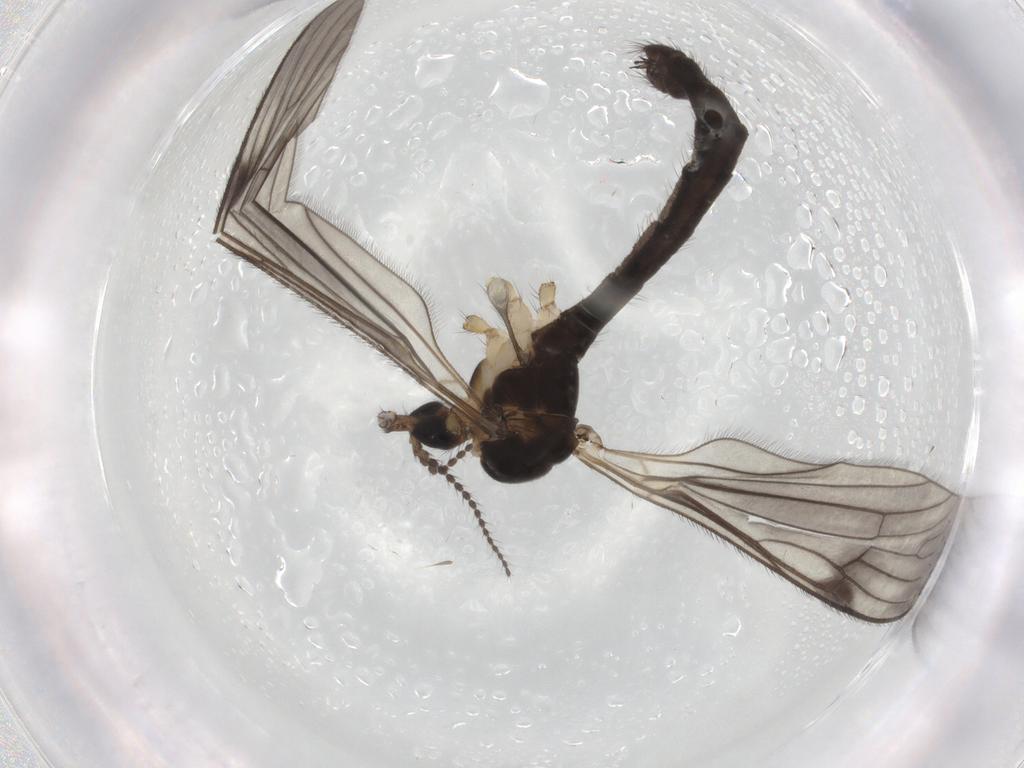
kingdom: Animalia
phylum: Arthropoda
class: Insecta
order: Diptera
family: Limoniidae
